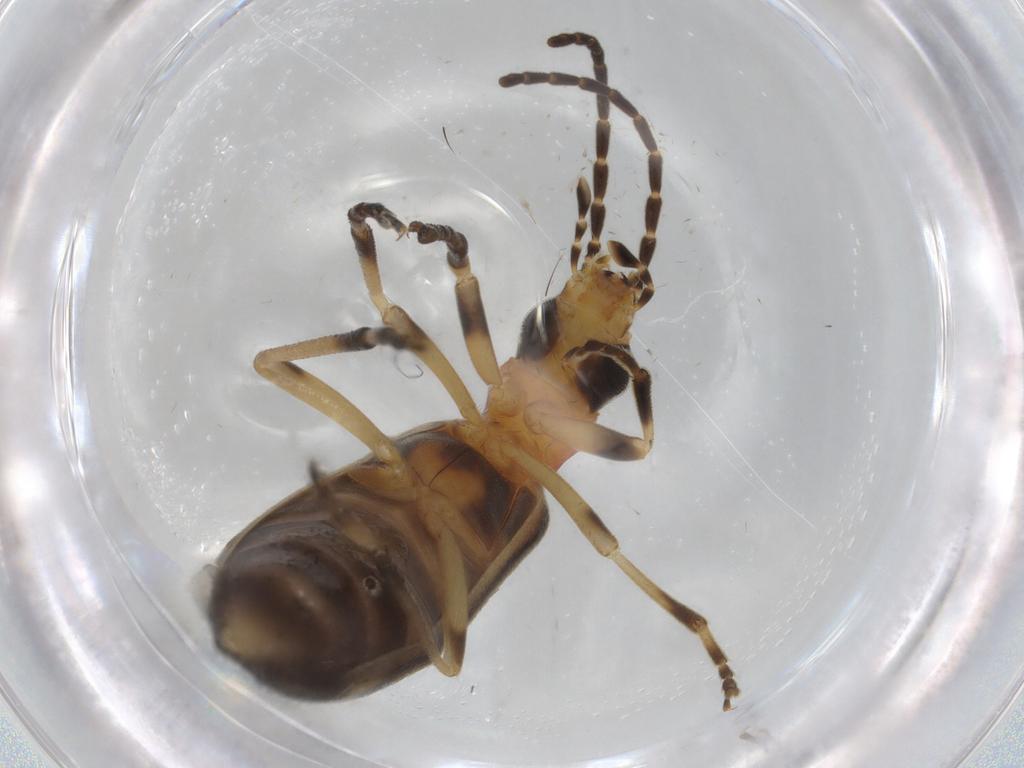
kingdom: Animalia
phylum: Arthropoda
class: Insecta
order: Coleoptera
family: Oedemeridae
